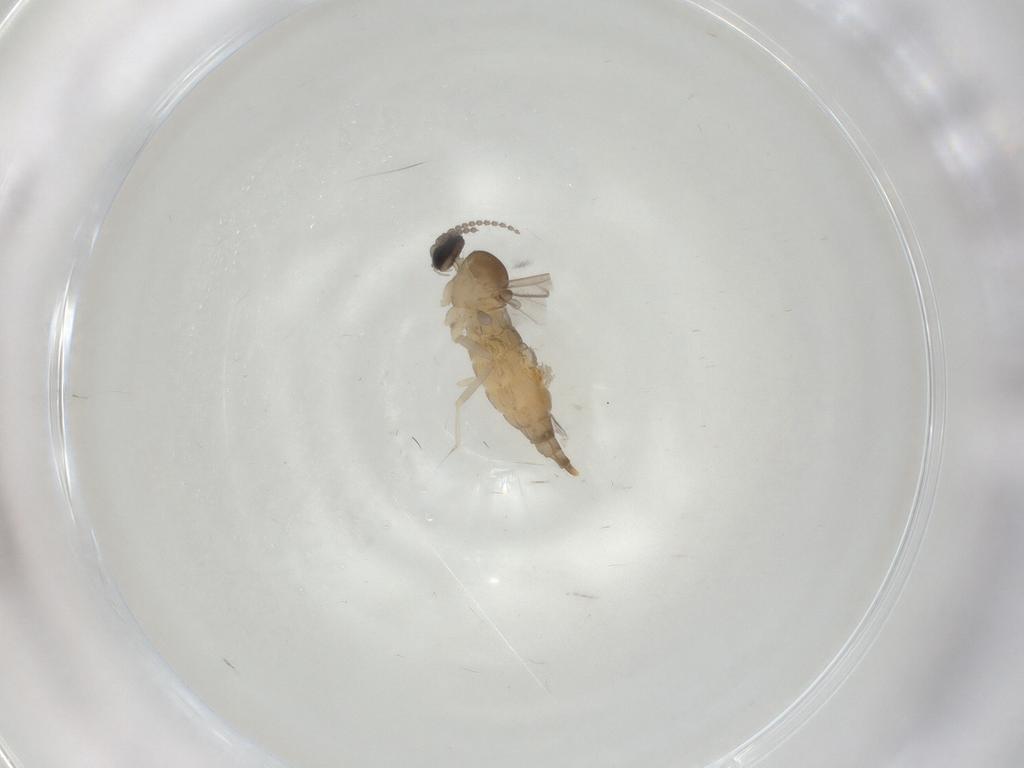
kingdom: Animalia
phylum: Arthropoda
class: Insecta
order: Diptera
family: Cecidomyiidae
